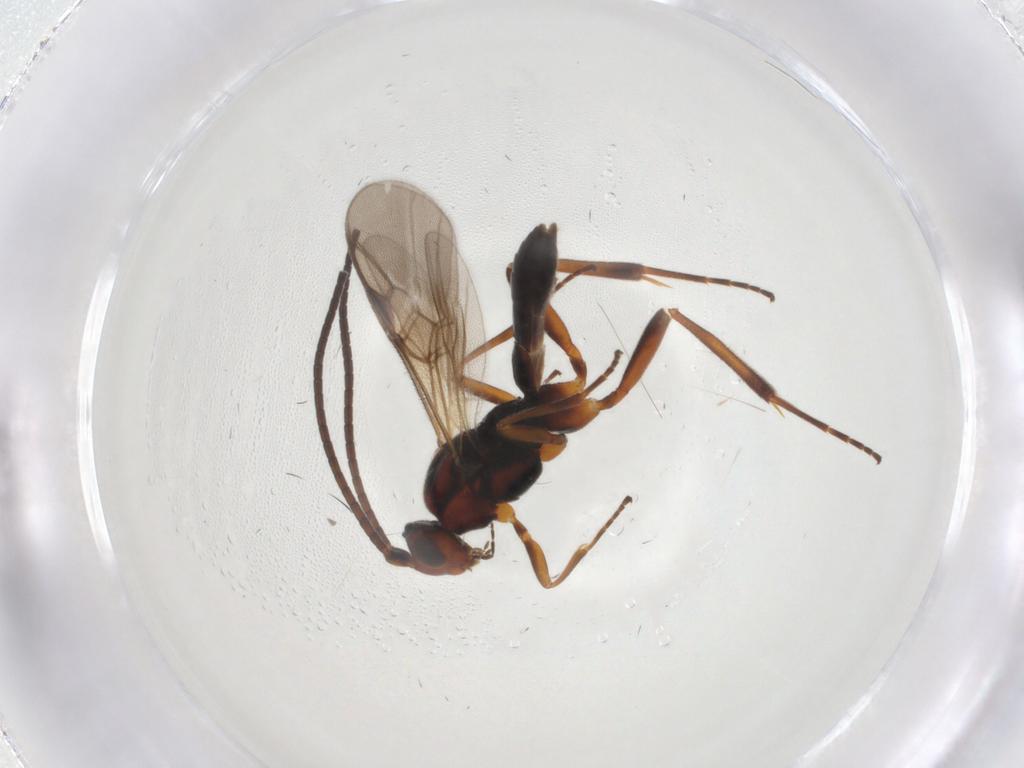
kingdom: Animalia
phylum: Arthropoda
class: Insecta
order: Hymenoptera
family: Braconidae
